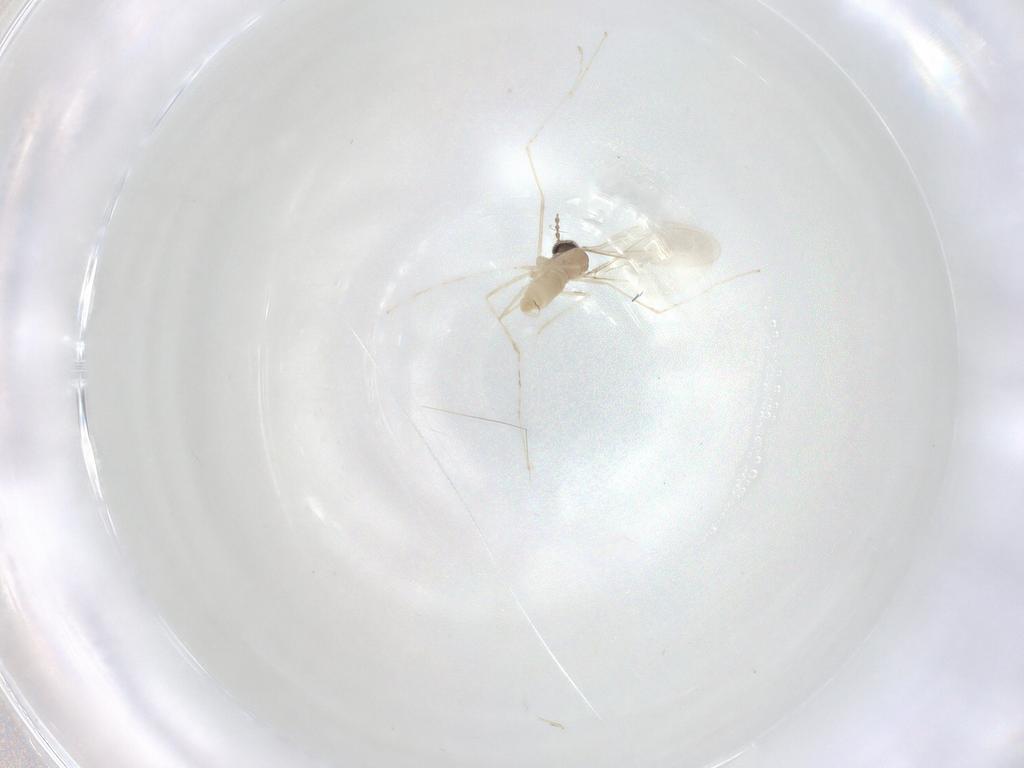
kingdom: Animalia
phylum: Arthropoda
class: Insecta
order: Diptera
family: Cecidomyiidae
